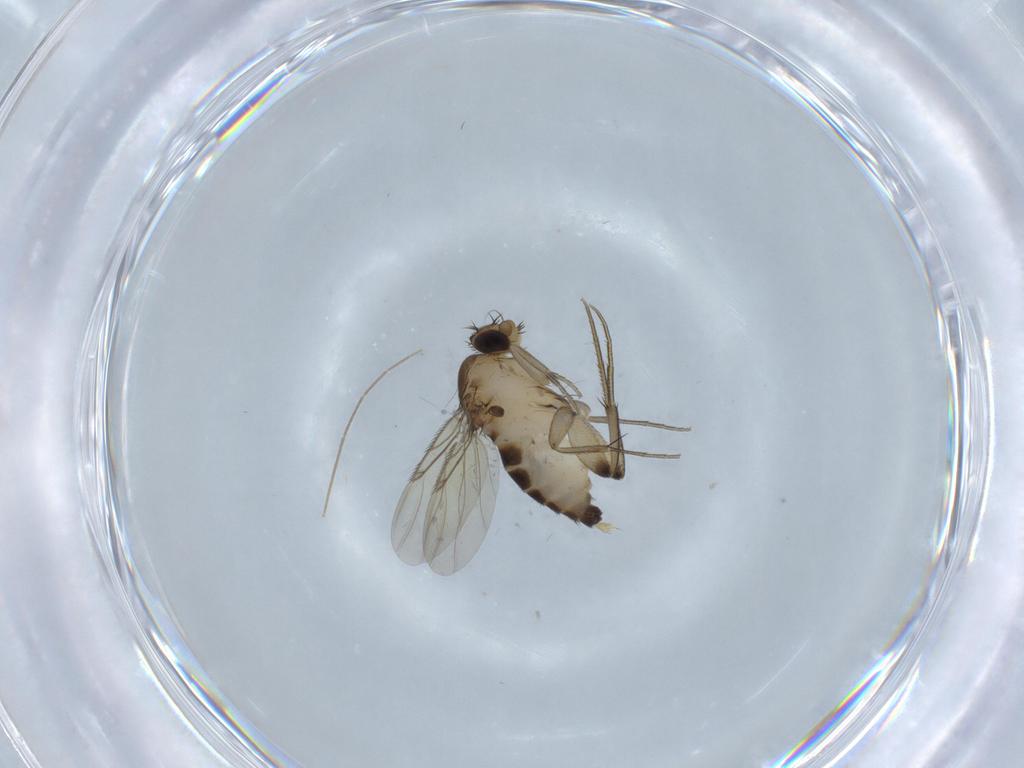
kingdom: Animalia
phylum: Arthropoda
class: Insecta
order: Diptera
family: Chironomidae
